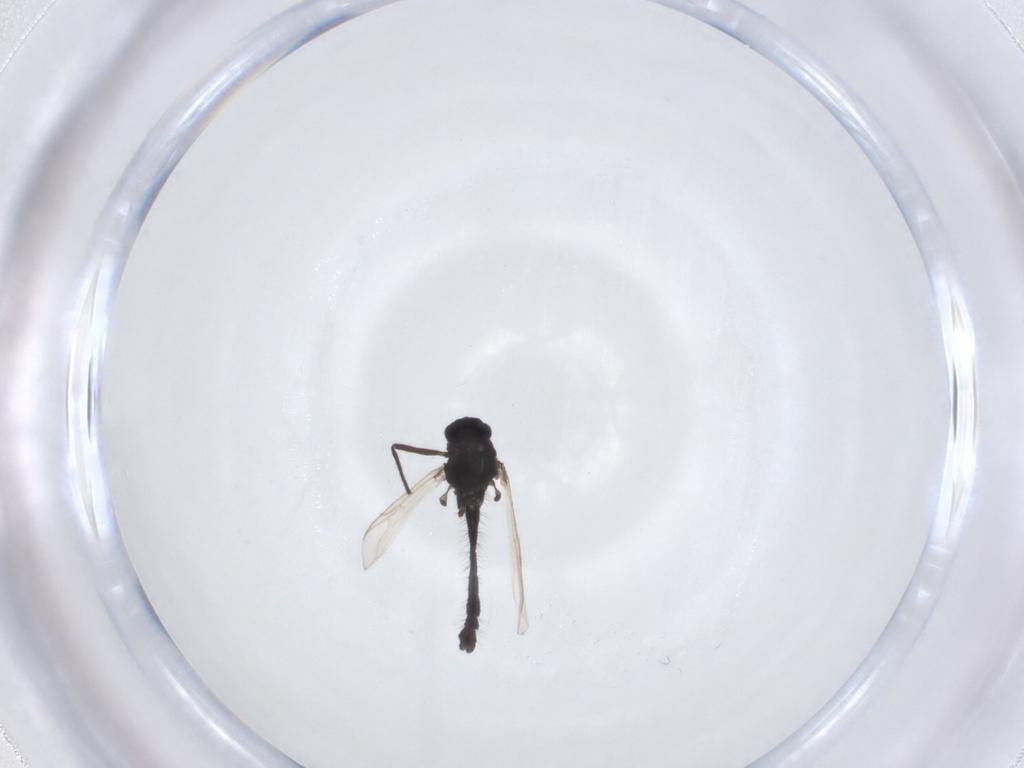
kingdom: Animalia
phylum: Arthropoda
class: Insecta
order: Diptera
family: Chironomidae
